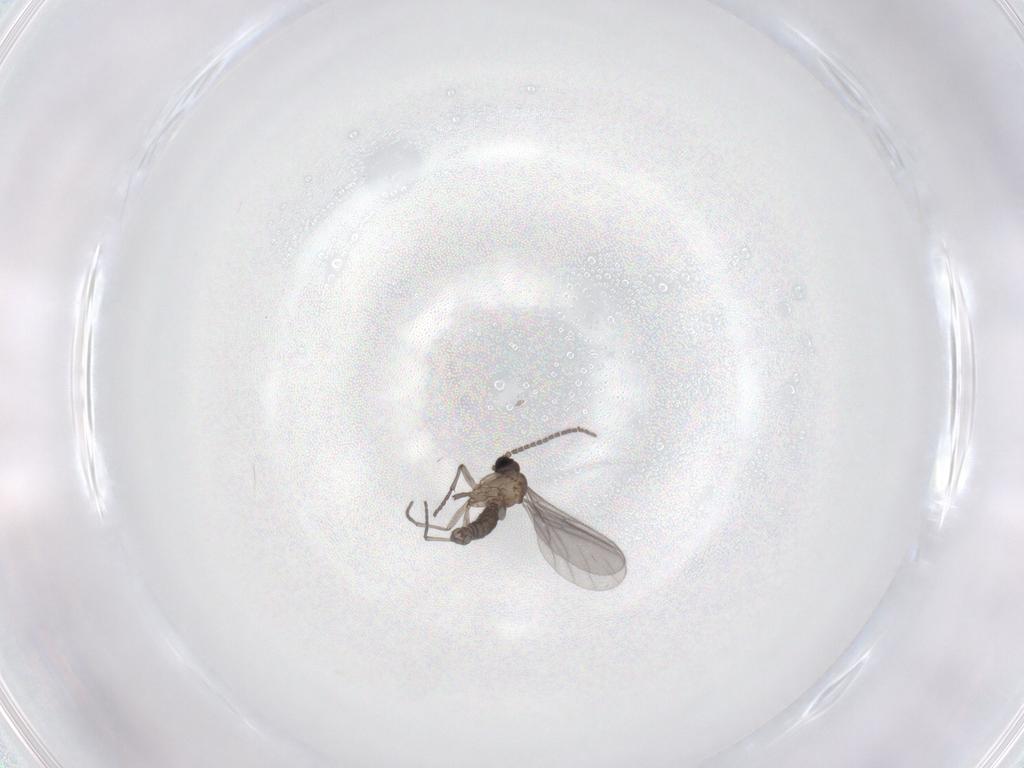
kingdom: Animalia
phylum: Arthropoda
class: Insecta
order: Diptera
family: Sciaridae
